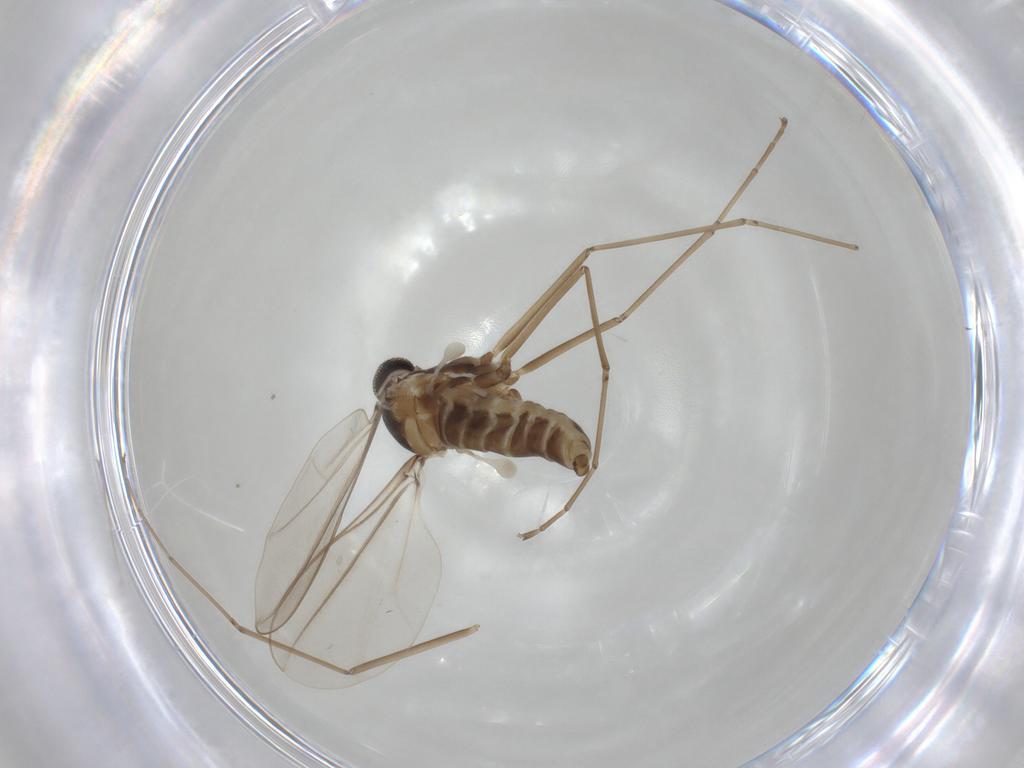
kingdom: Animalia
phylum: Arthropoda
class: Insecta
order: Diptera
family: Cecidomyiidae
